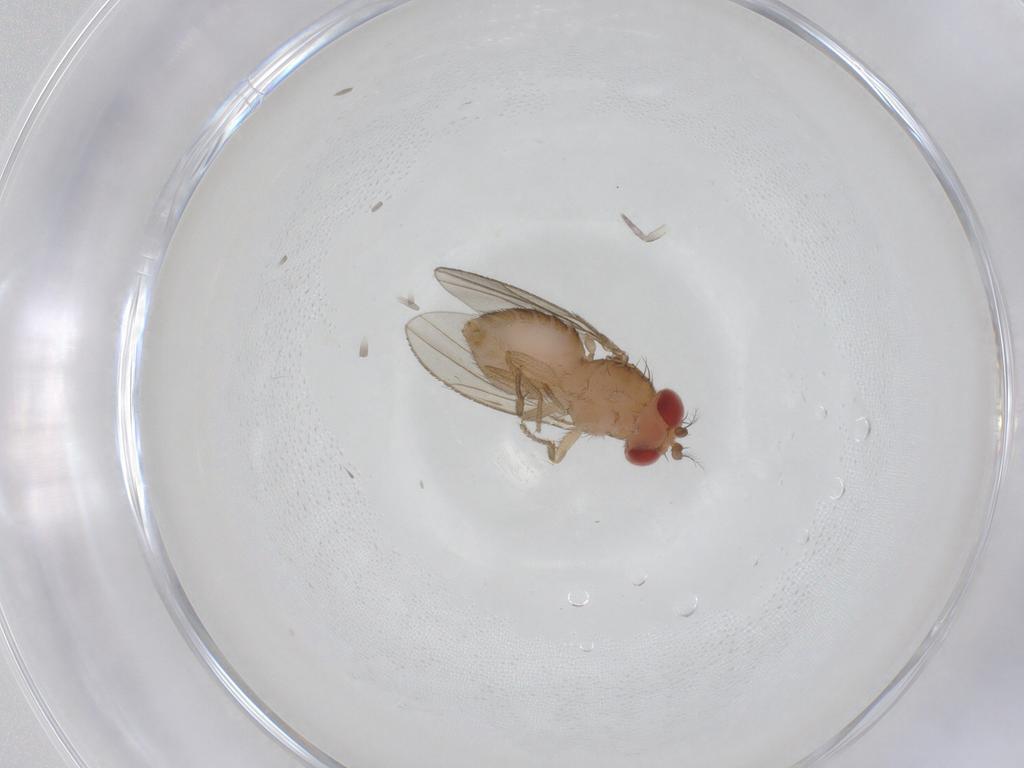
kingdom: Animalia
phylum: Arthropoda
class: Insecta
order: Diptera
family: Drosophilidae
